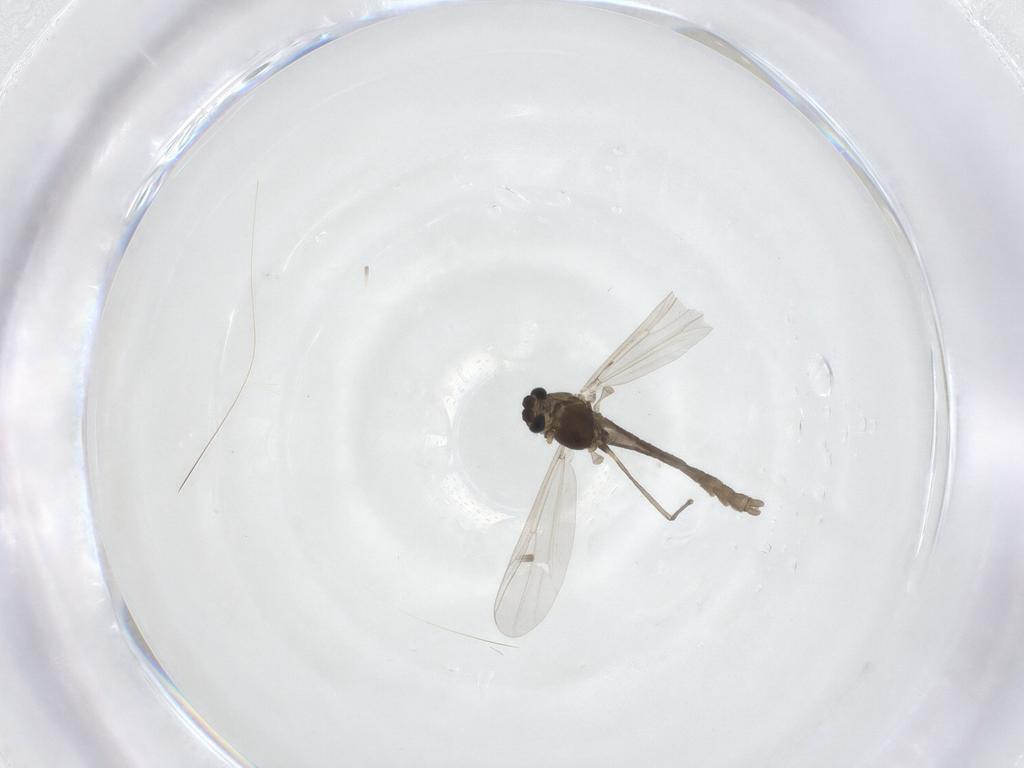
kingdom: Animalia
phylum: Arthropoda
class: Insecta
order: Diptera
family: Chironomidae
